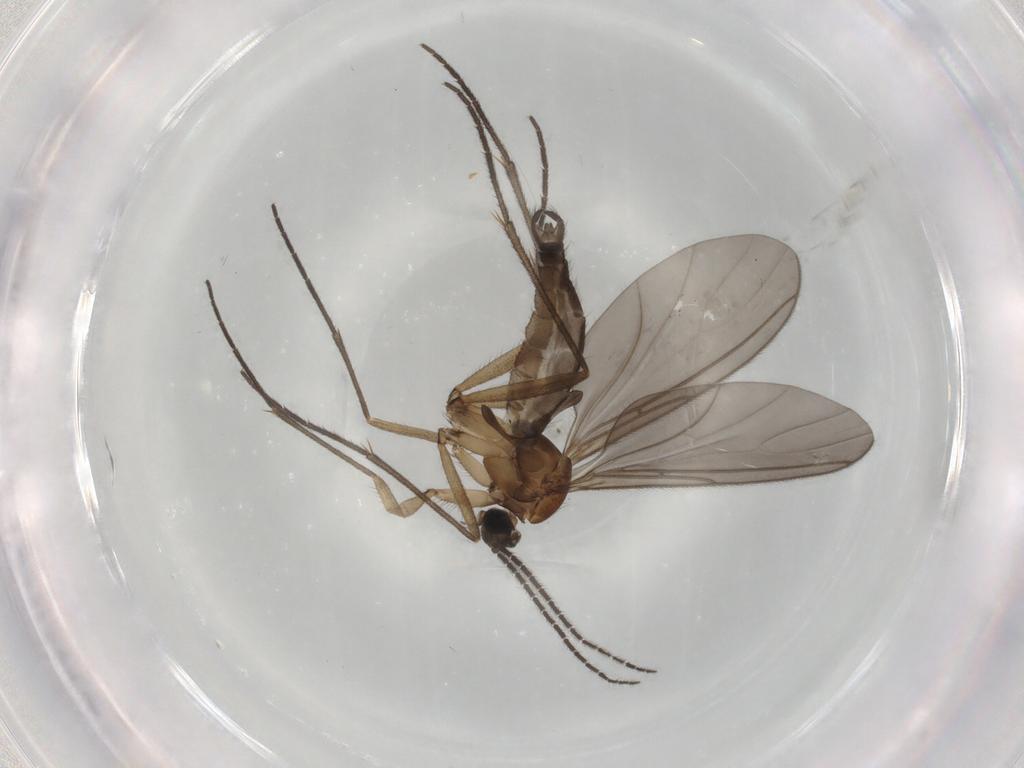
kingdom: Animalia
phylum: Arthropoda
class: Insecta
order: Diptera
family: Sciaridae
